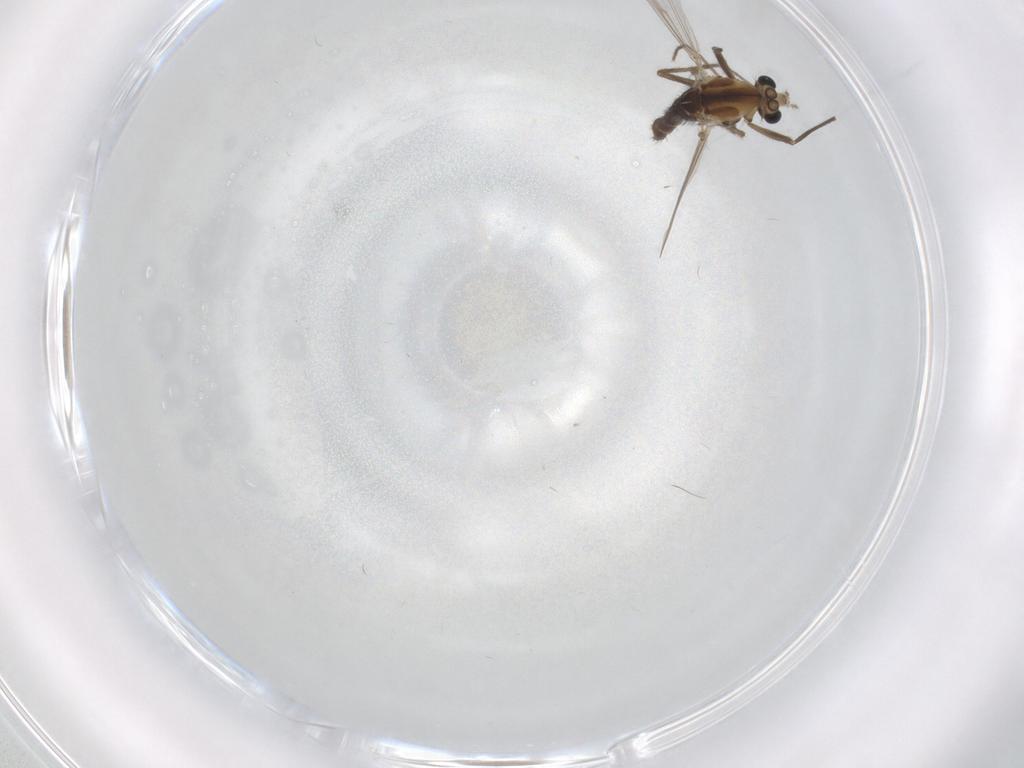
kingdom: Animalia
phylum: Arthropoda
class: Insecta
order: Diptera
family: Chironomidae
